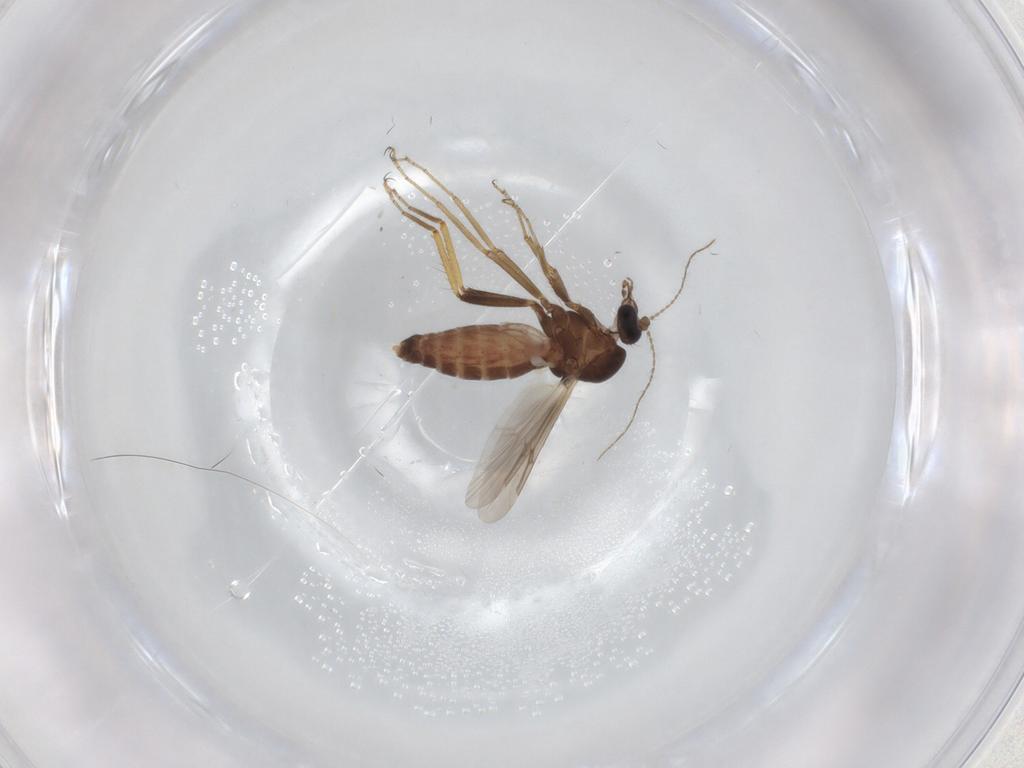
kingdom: Animalia
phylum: Arthropoda
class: Insecta
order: Diptera
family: Ceratopogonidae
